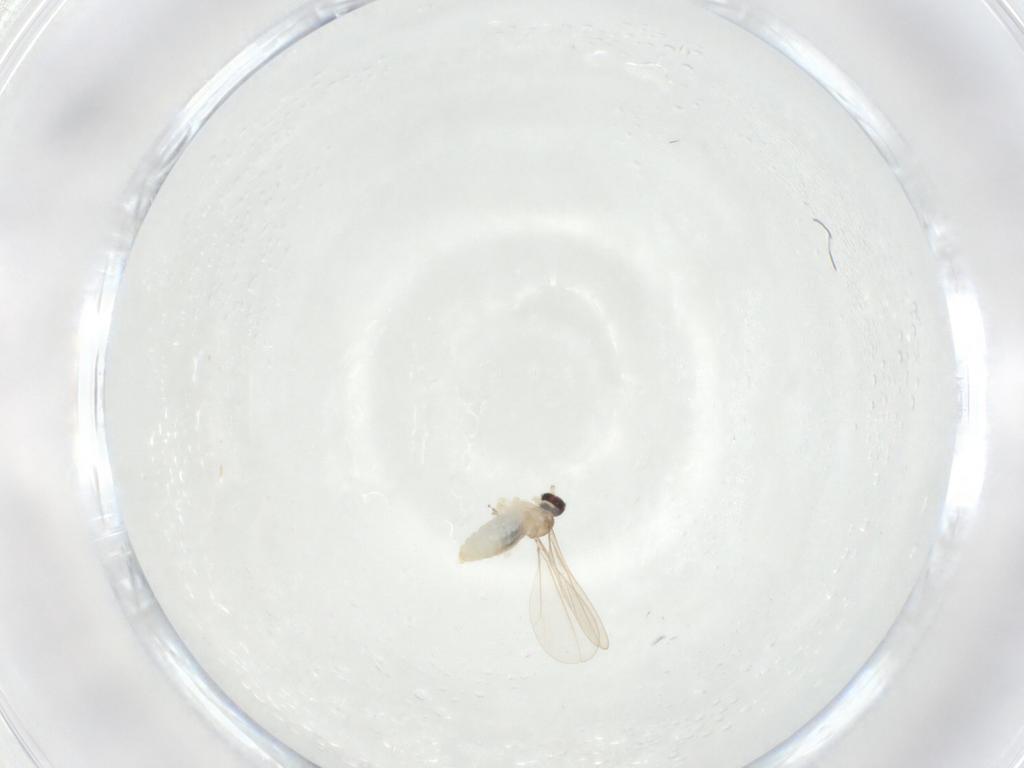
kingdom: Animalia
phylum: Arthropoda
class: Insecta
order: Diptera
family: Cecidomyiidae
